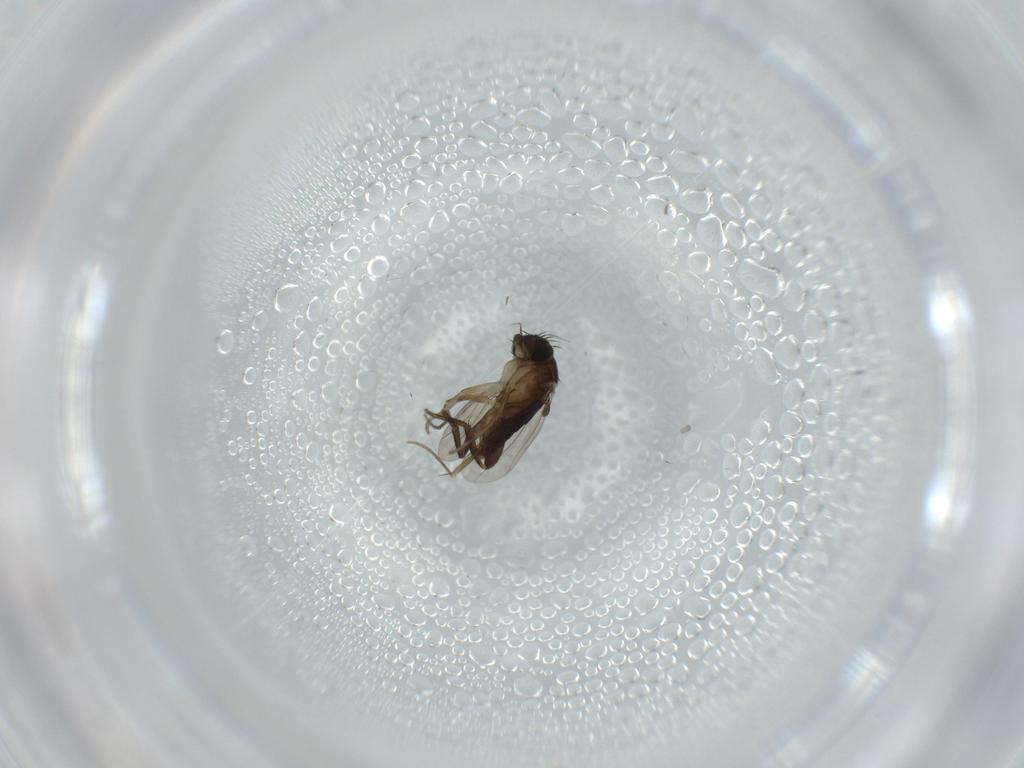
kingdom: Animalia
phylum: Arthropoda
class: Insecta
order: Diptera
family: Phoridae
